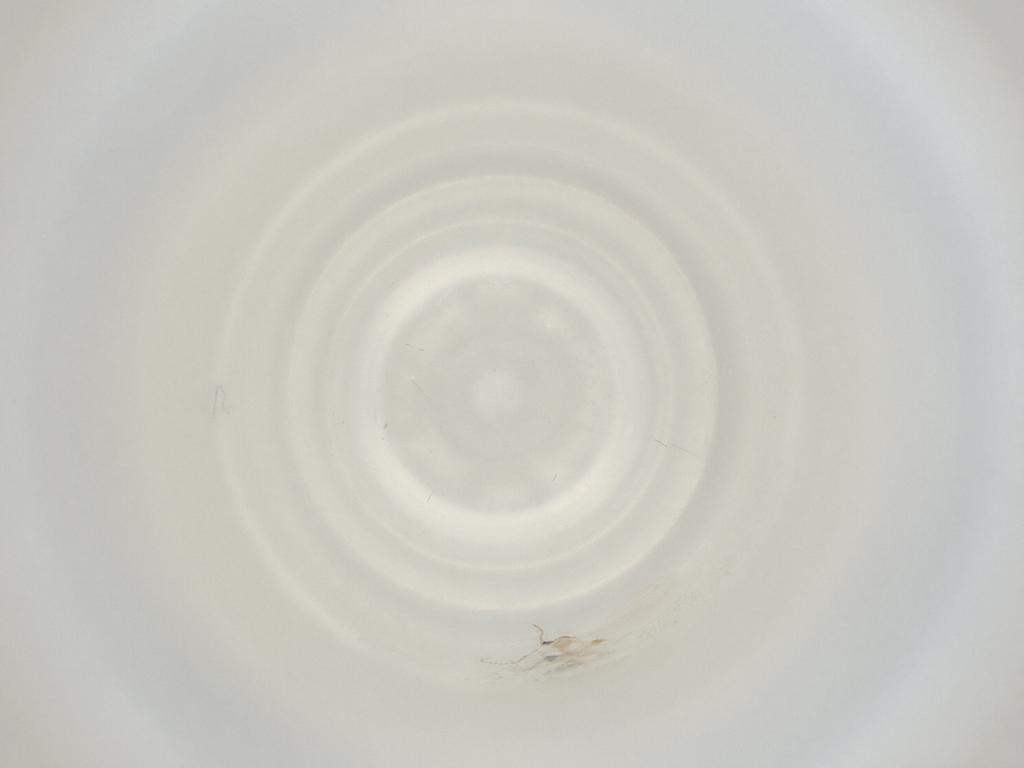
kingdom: Animalia
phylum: Arthropoda
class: Insecta
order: Diptera
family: Cecidomyiidae
